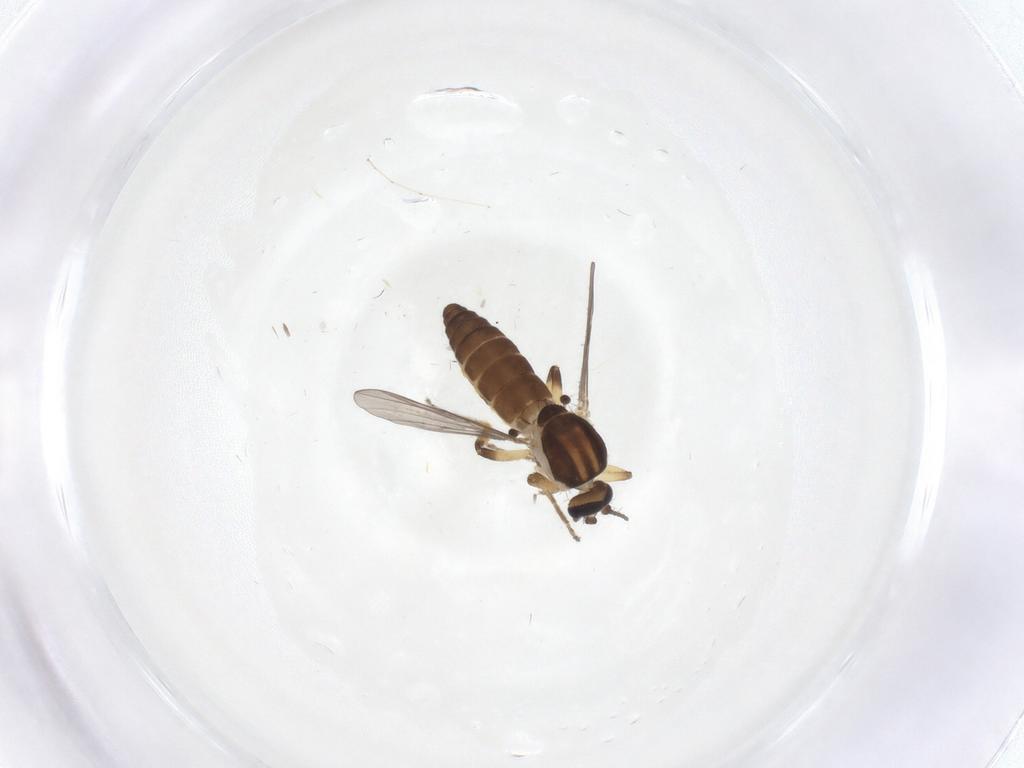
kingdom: Animalia
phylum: Arthropoda
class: Insecta
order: Diptera
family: Ceratopogonidae
